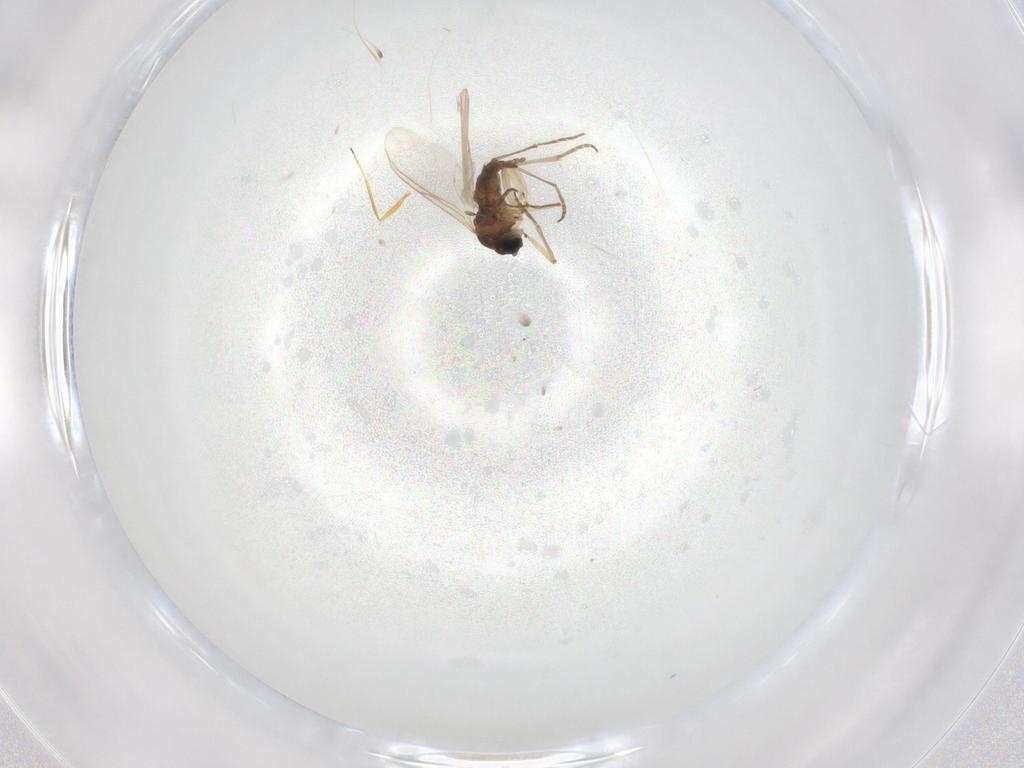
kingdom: Animalia
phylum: Arthropoda
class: Insecta
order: Diptera
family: Sciaridae
